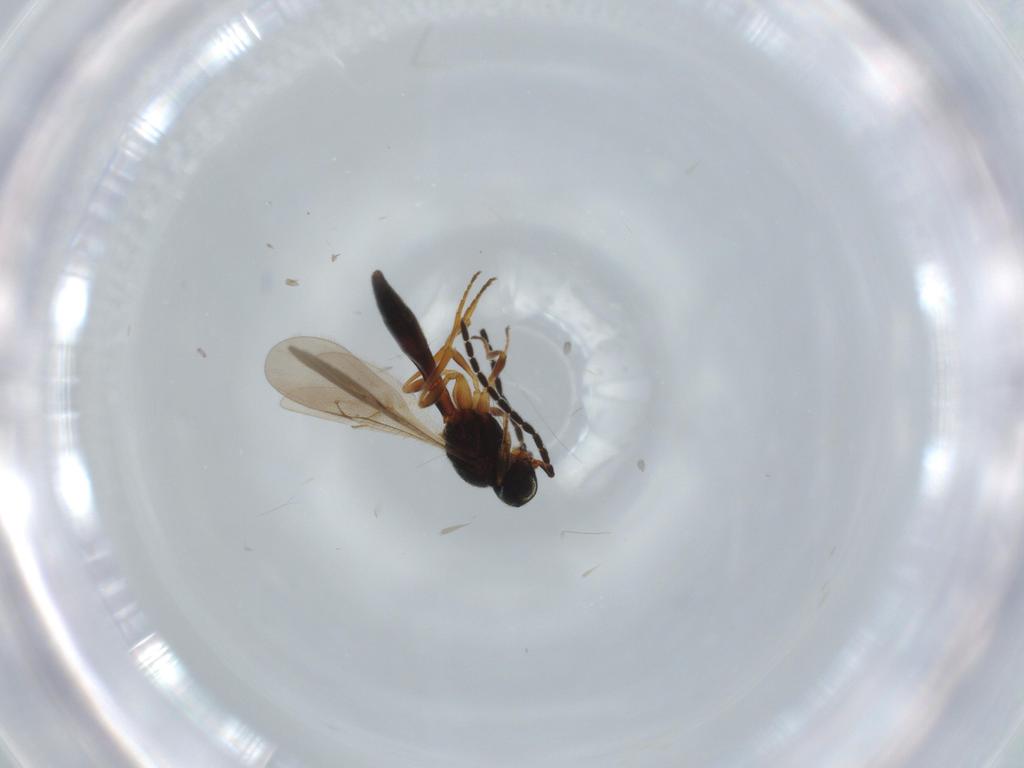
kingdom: Animalia
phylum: Arthropoda
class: Insecta
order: Hymenoptera
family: Scelionidae
